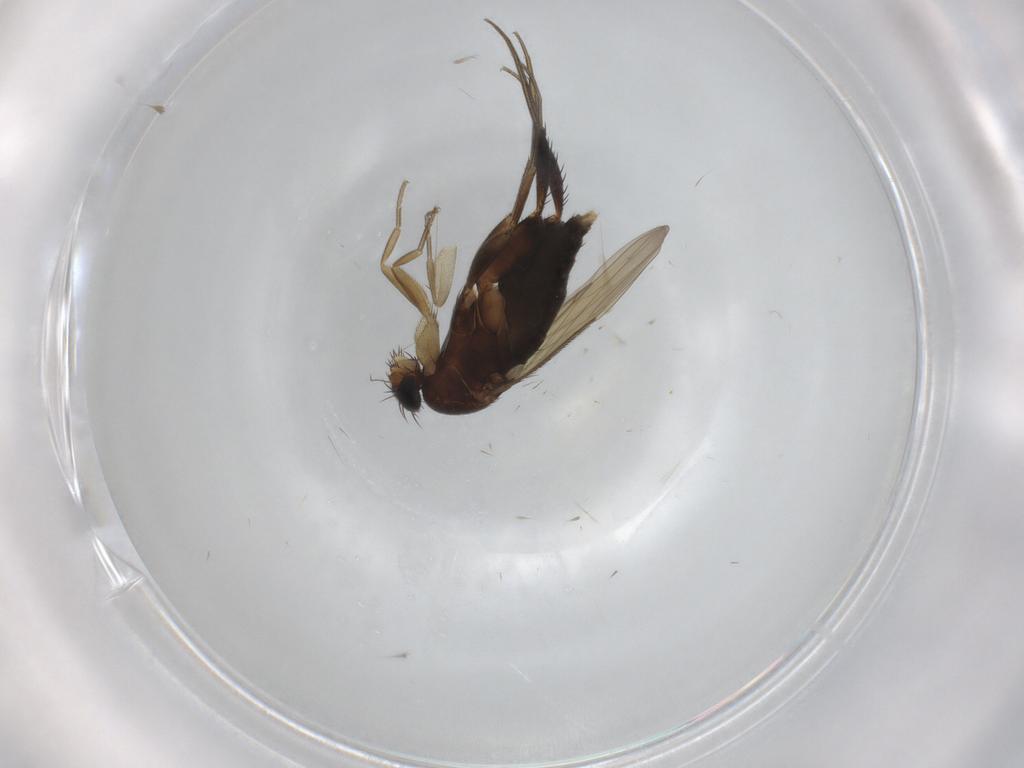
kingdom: Animalia
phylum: Arthropoda
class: Insecta
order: Diptera
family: Phoridae
